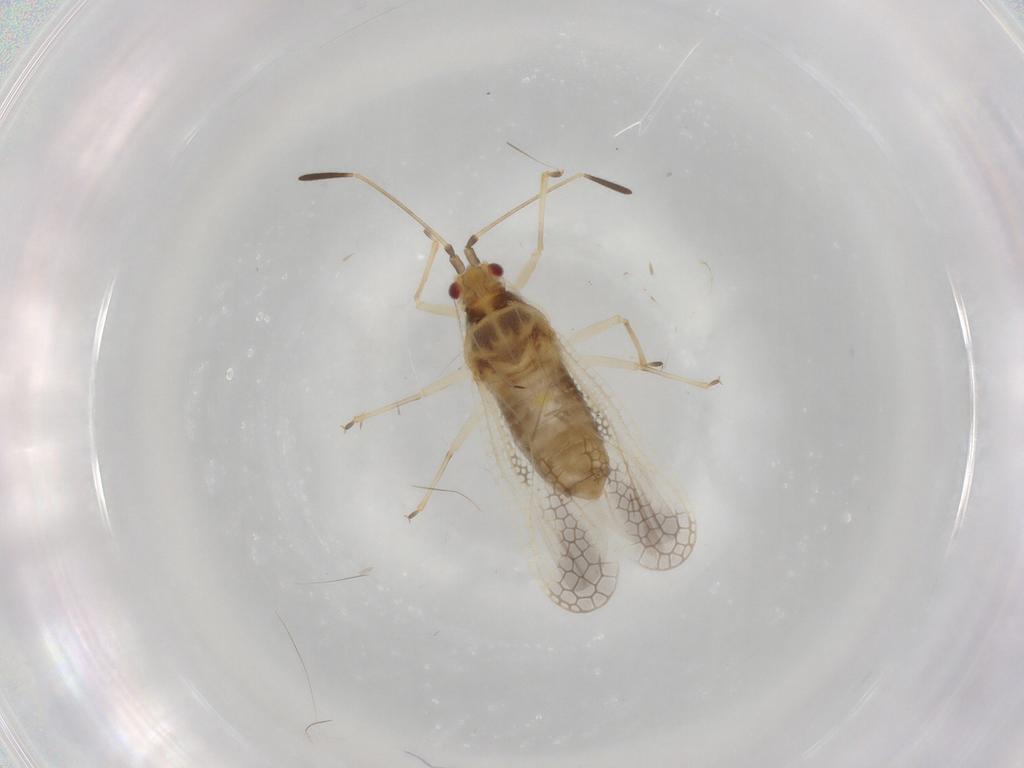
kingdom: Animalia
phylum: Arthropoda
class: Insecta
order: Hemiptera
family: Tingidae
